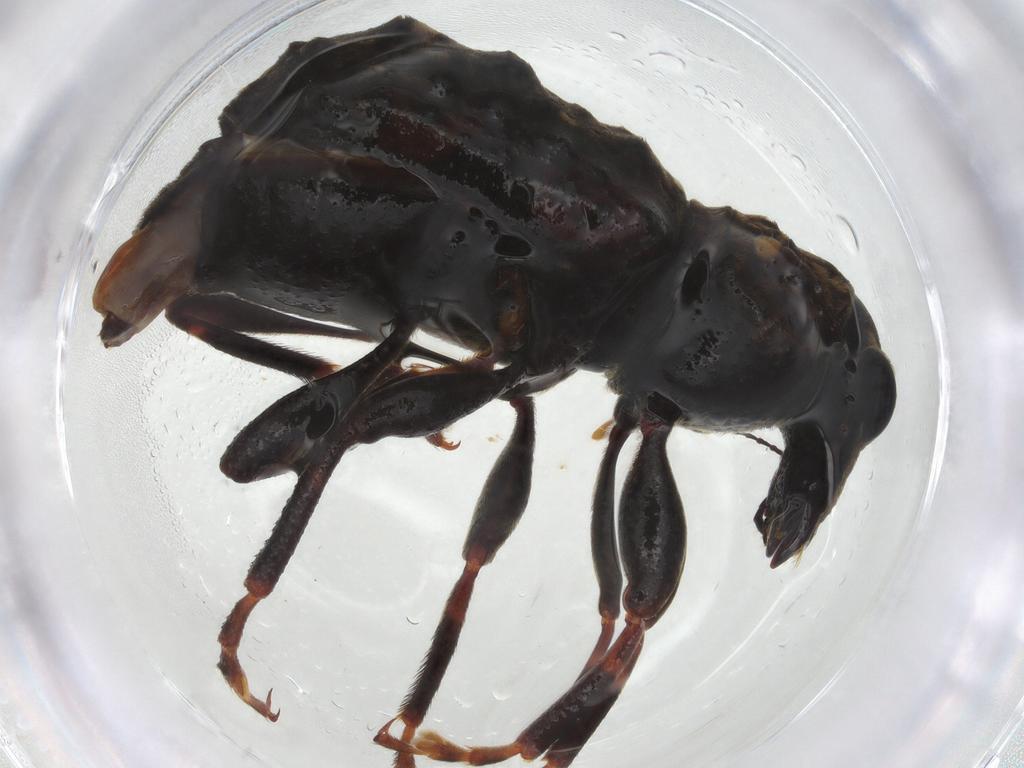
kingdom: Animalia
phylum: Arthropoda
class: Insecta
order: Coleoptera
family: Anthribidae
